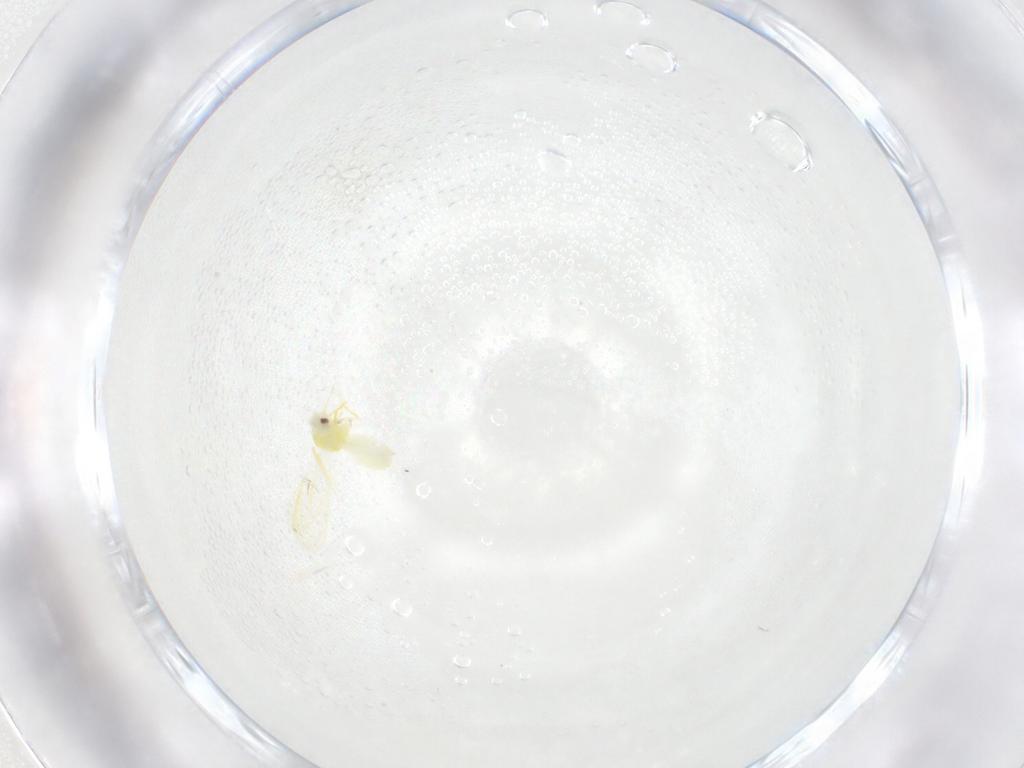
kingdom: Animalia
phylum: Arthropoda
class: Insecta
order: Hemiptera
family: Aleyrodidae
